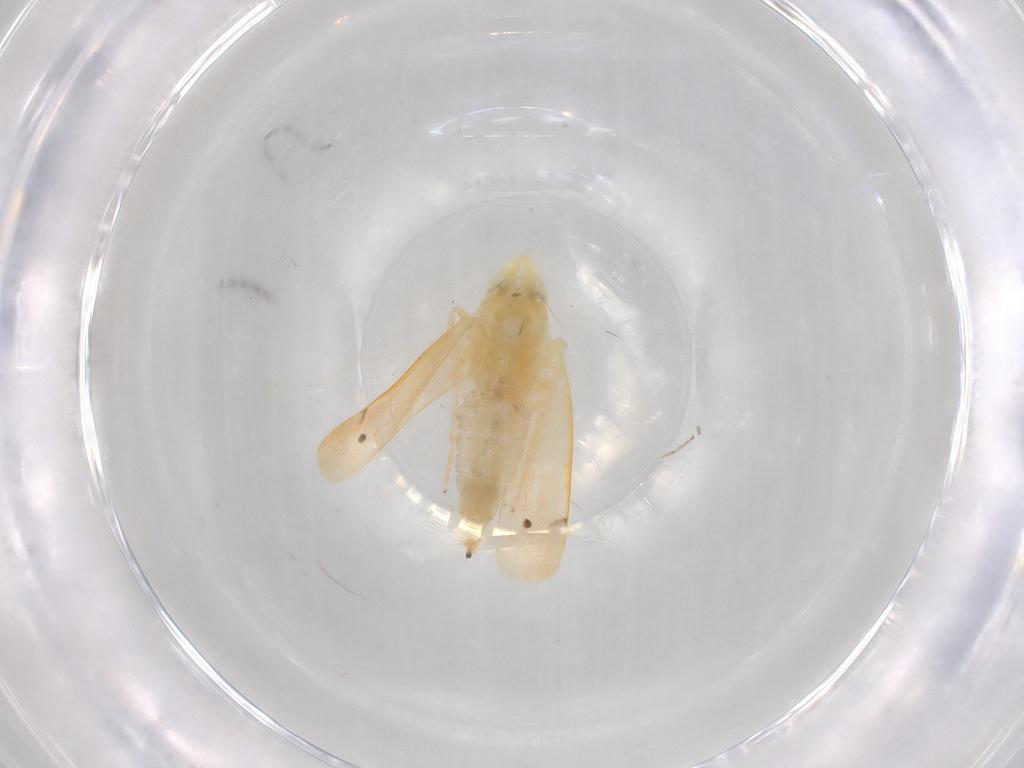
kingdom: Animalia
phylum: Arthropoda
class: Insecta
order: Hemiptera
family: Cicadellidae
